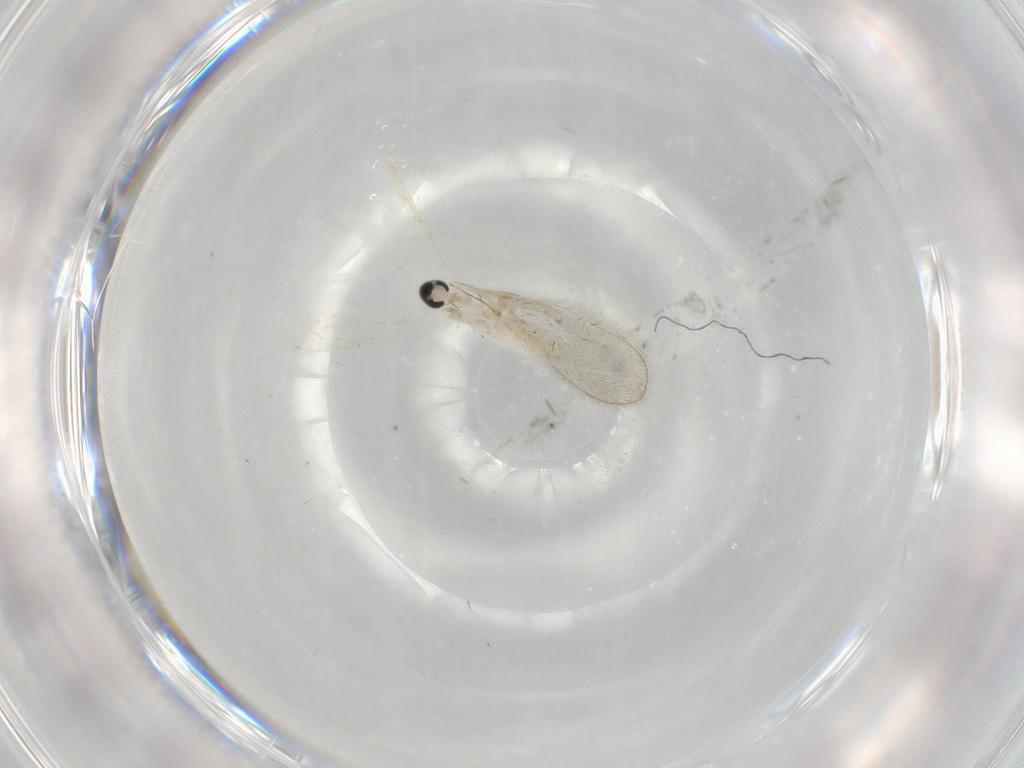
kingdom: Animalia
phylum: Arthropoda
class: Insecta
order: Diptera
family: Cecidomyiidae
